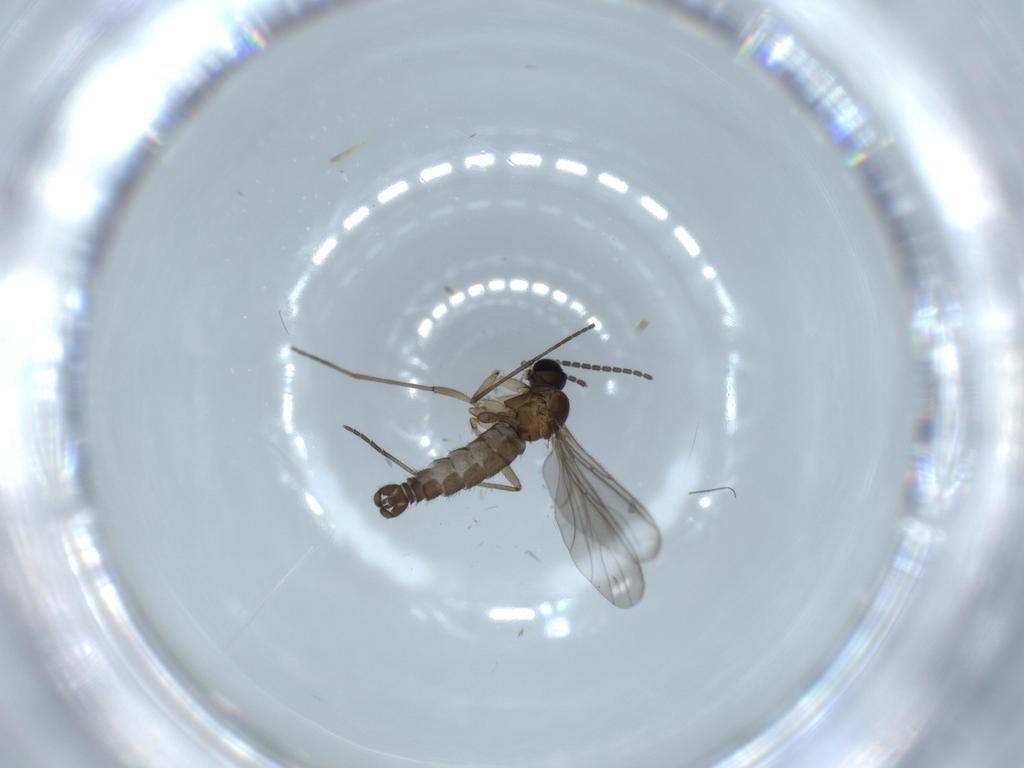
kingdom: Animalia
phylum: Arthropoda
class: Insecta
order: Diptera
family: Sciaridae
